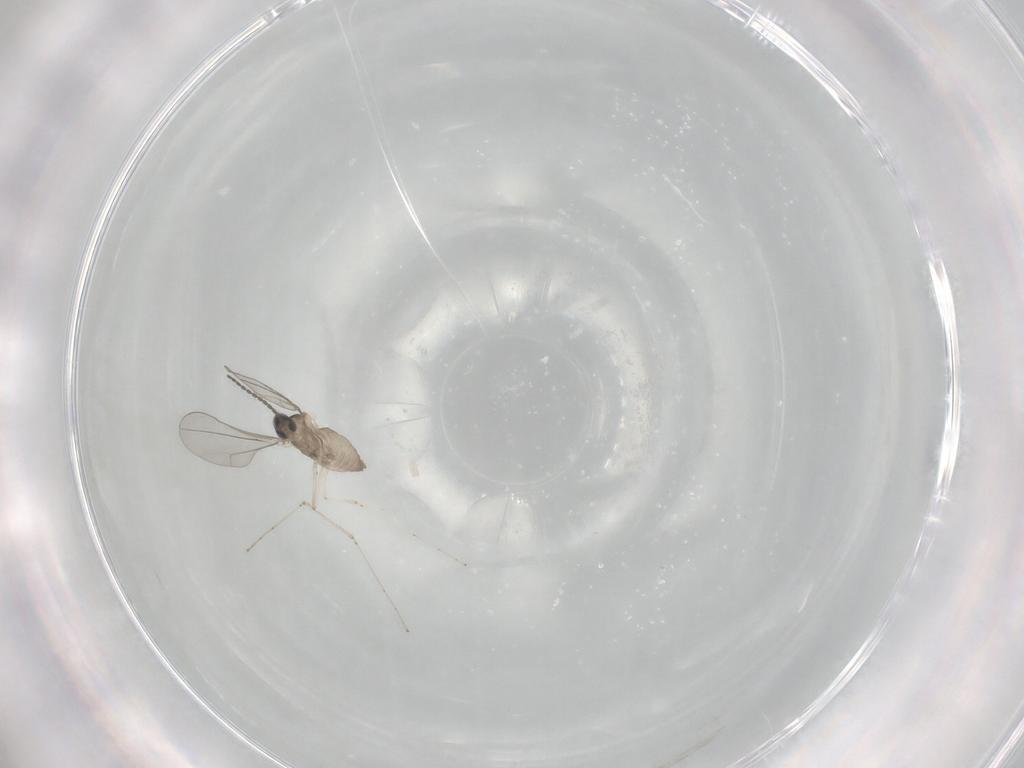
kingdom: Animalia
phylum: Arthropoda
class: Insecta
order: Diptera
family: Cecidomyiidae
